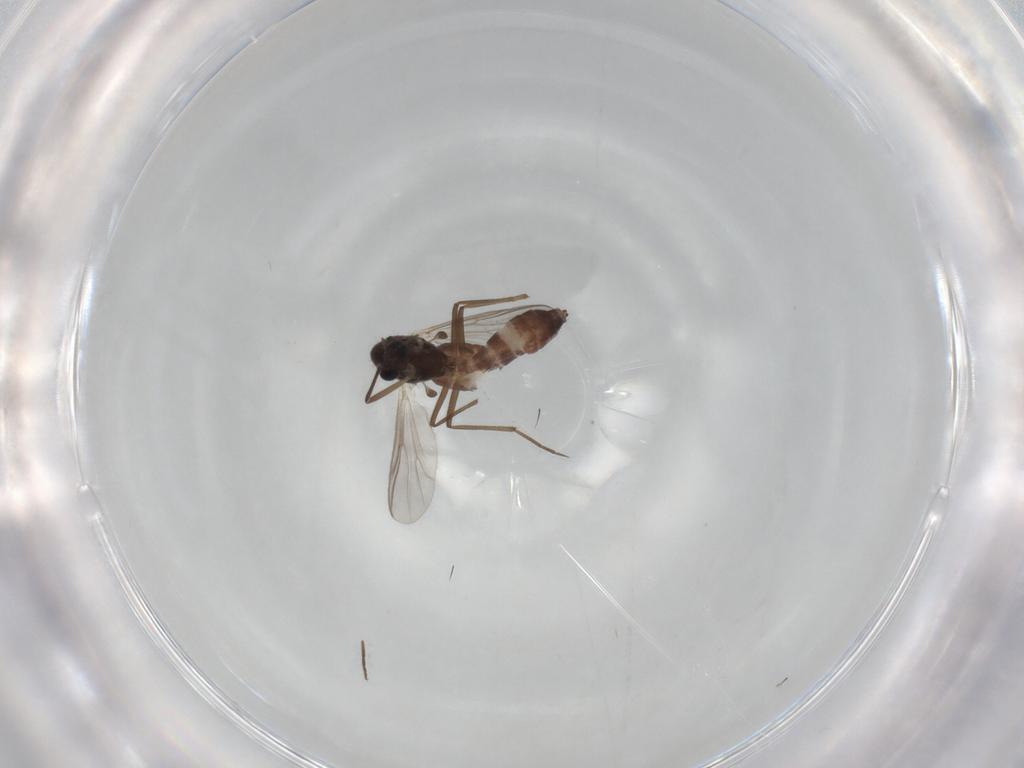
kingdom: Animalia
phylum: Arthropoda
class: Insecta
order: Diptera
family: Chironomidae
